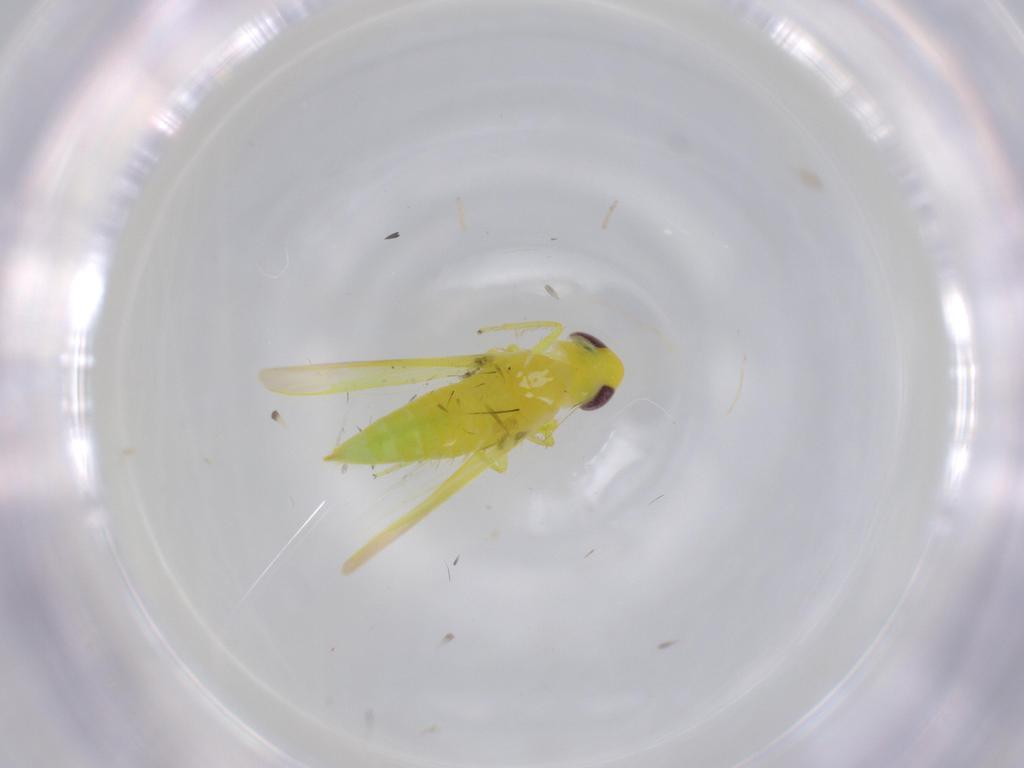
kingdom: Animalia
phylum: Arthropoda
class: Insecta
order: Hemiptera
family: Cicadellidae
